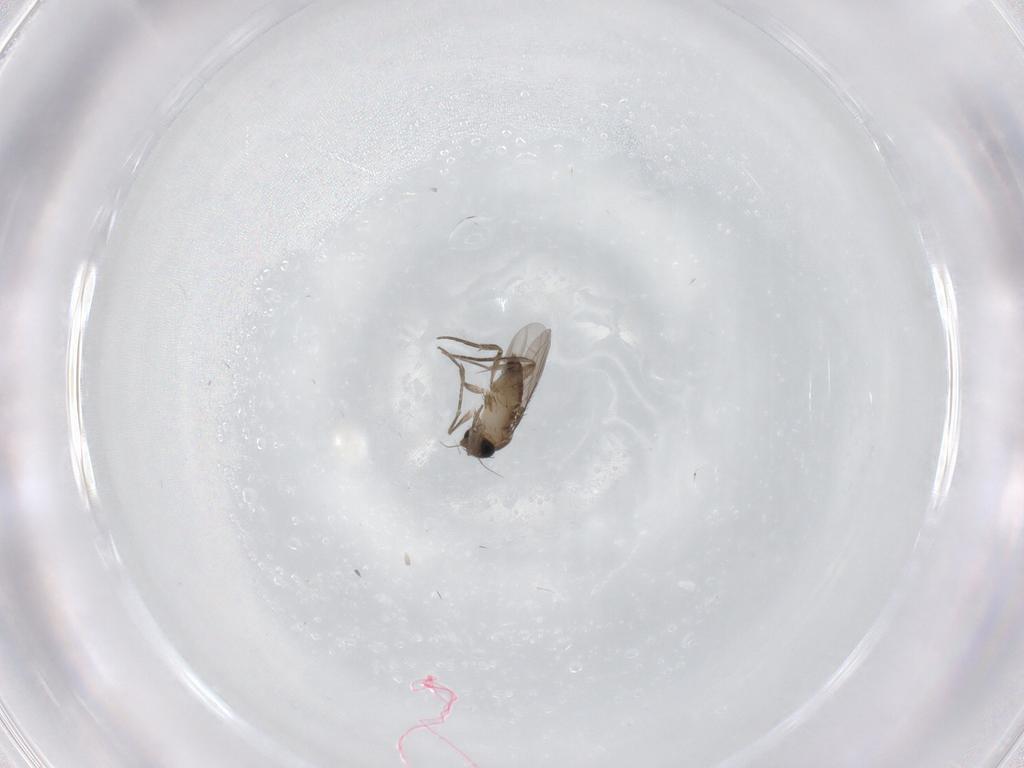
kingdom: Animalia
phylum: Arthropoda
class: Insecta
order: Diptera
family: Phoridae
